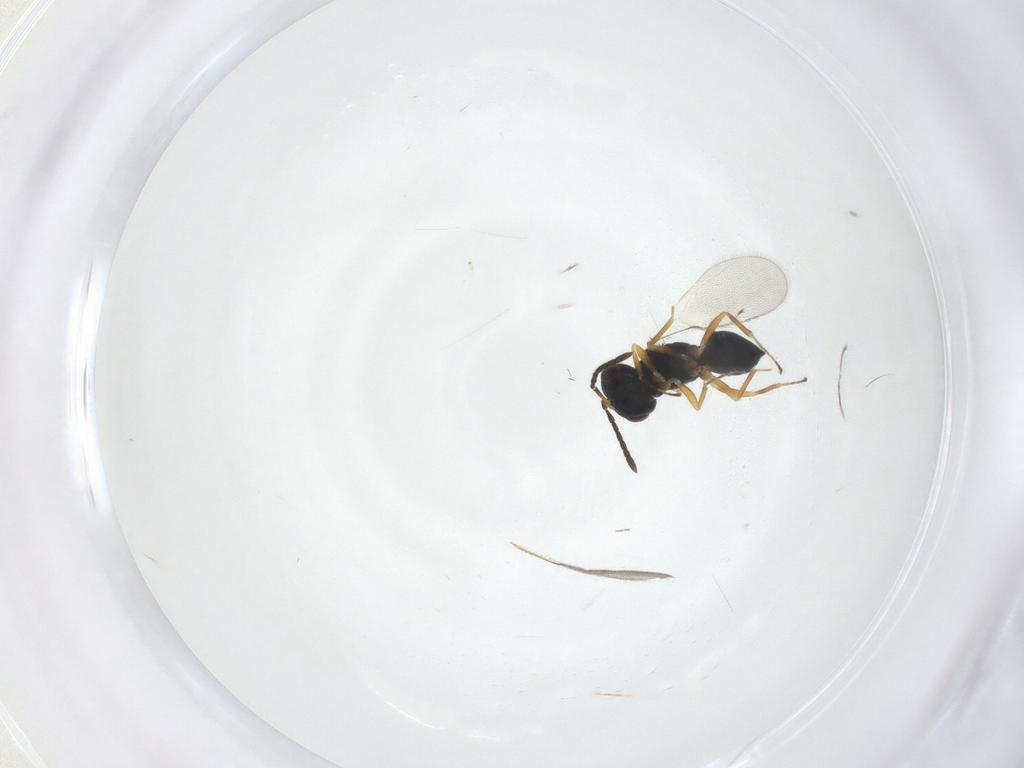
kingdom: Animalia
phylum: Arthropoda
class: Insecta
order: Hymenoptera
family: Pteromalidae
